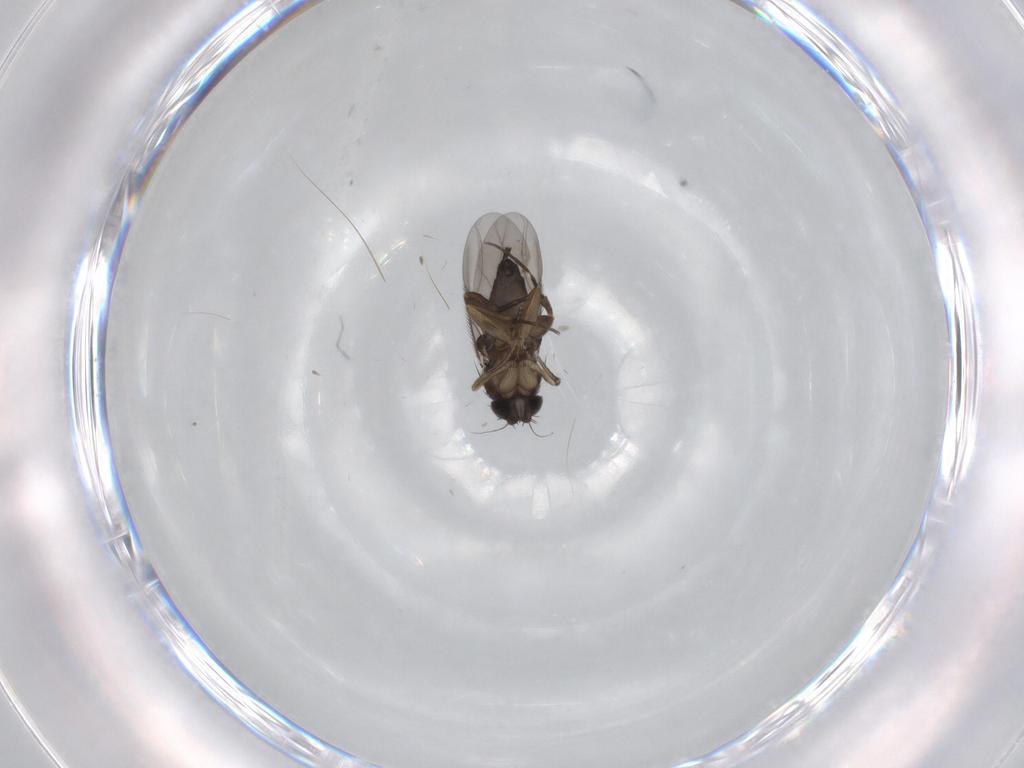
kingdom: Animalia
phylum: Arthropoda
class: Insecta
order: Diptera
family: Phoridae
